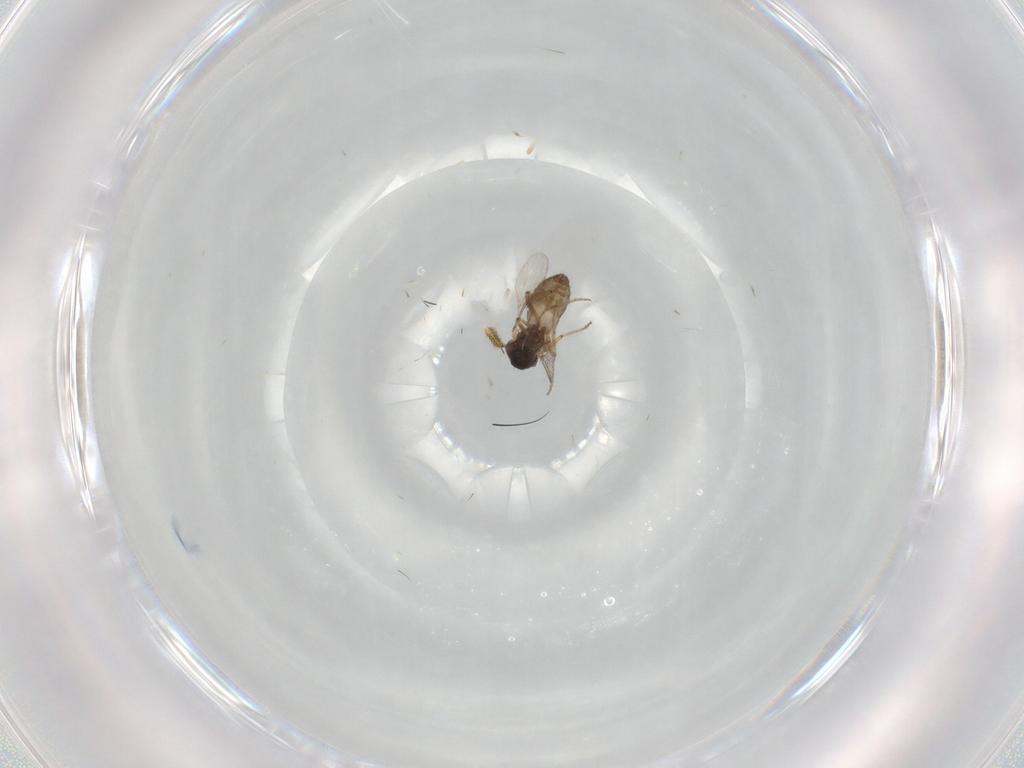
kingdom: Animalia
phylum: Arthropoda
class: Insecta
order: Diptera
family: Ceratopogonidae
